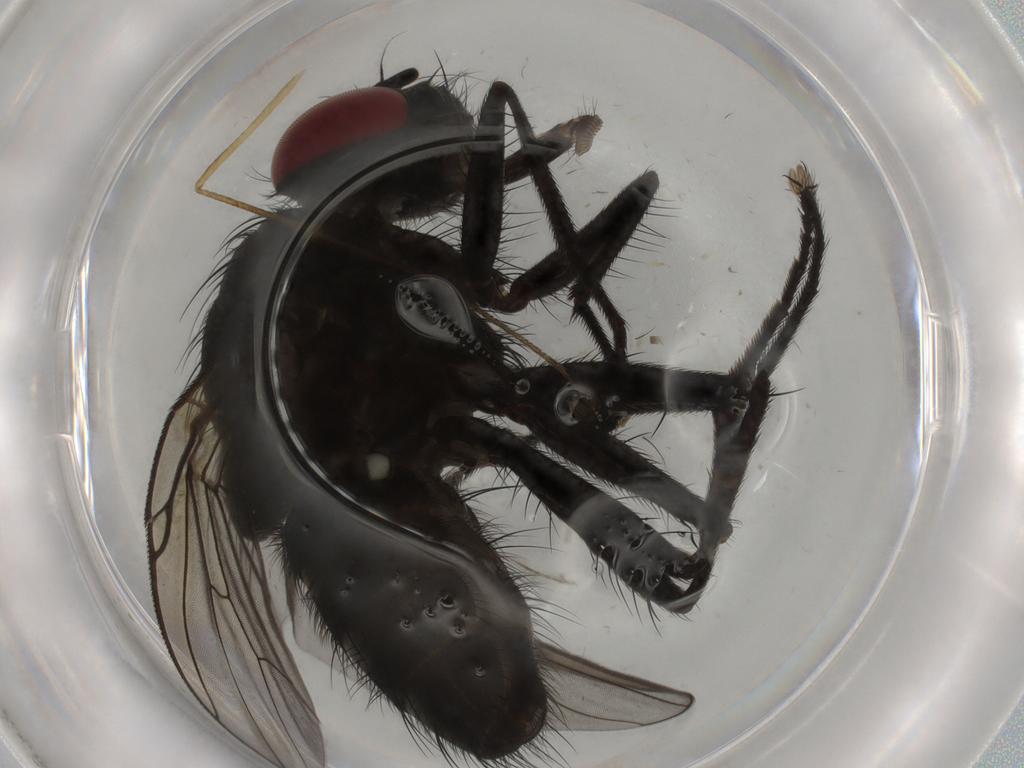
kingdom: Animalia
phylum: Arthropoda
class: Insecta
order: Diptera
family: Muscidae
